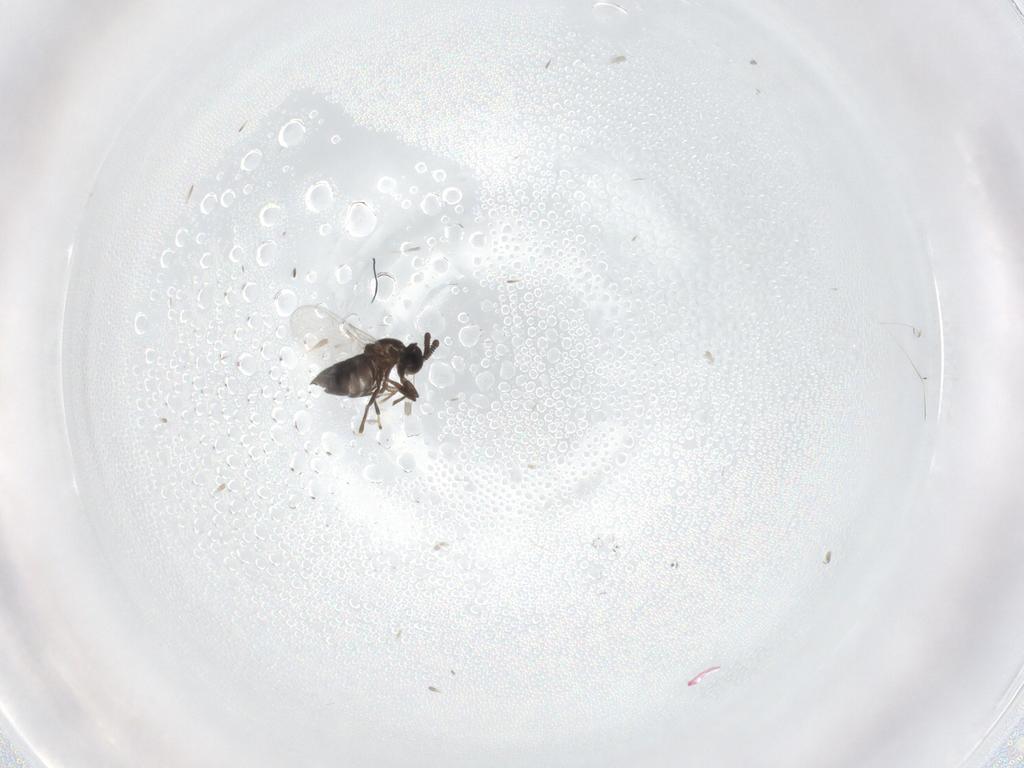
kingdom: Animalia
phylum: Arthropoda
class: Insecta
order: Diptera
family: Scatopsidae
